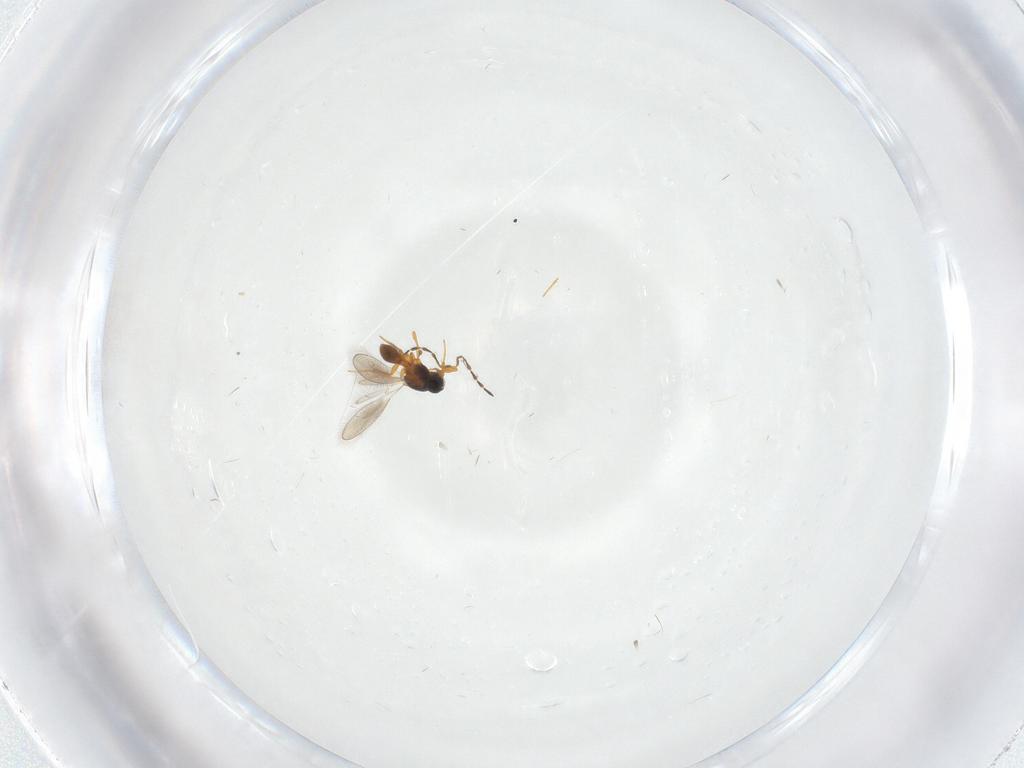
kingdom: Animalia
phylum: Arthropoda
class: Insecta
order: Hymenoptera
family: Platygastridae
